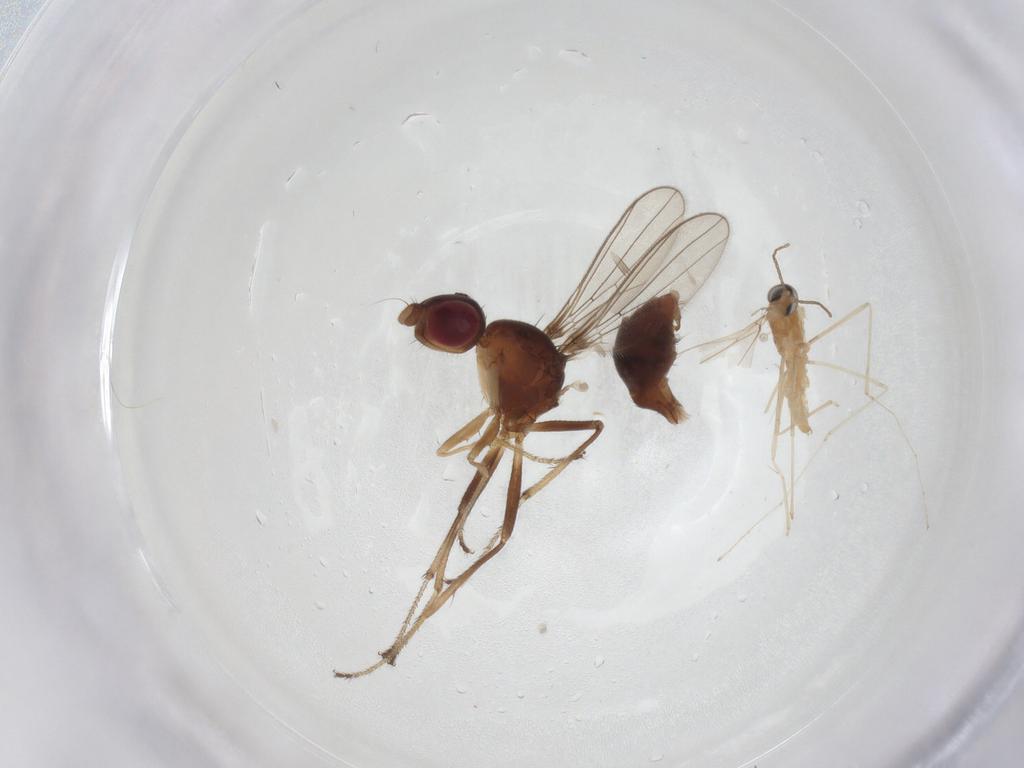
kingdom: Animalia
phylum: Arthropoda
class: Insecta
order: Diptera
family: Cecidomyiidae
